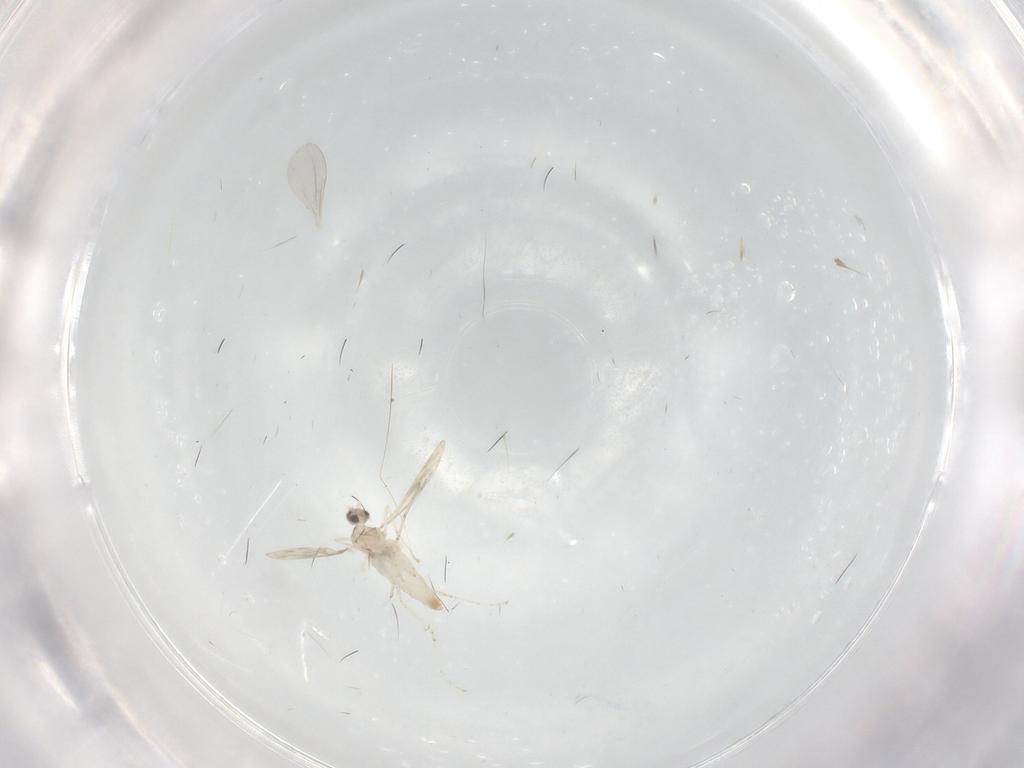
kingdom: Animalia
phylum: Arthropoda
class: Insecta
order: Diptera
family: Cecidomyiidae
